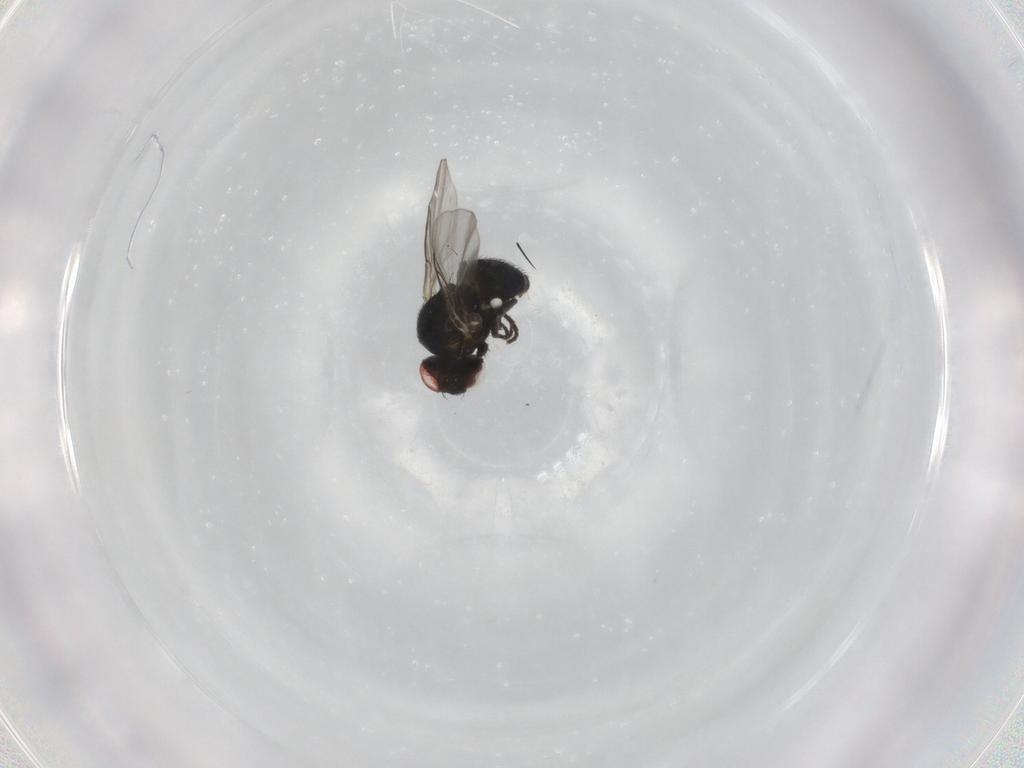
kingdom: Animalia
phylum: Arthropoda
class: Insecta
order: Diptera
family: Agromyzidae
